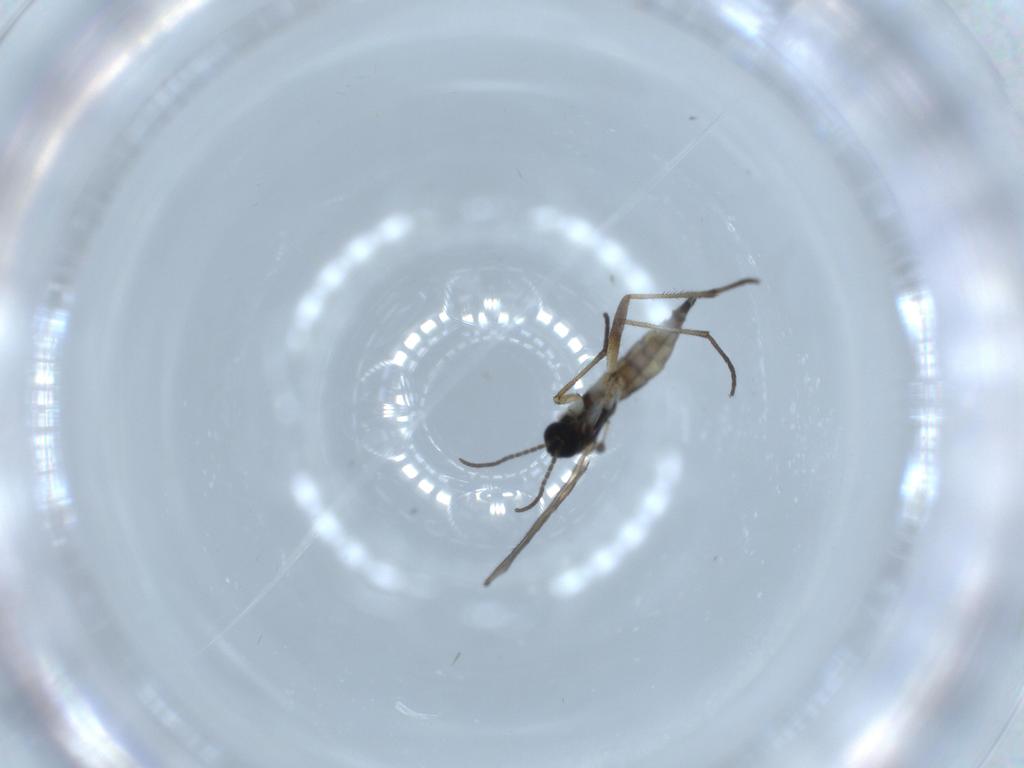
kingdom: Animalia
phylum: Arthropoda
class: Insecta
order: Diptera
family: Sciaridae
